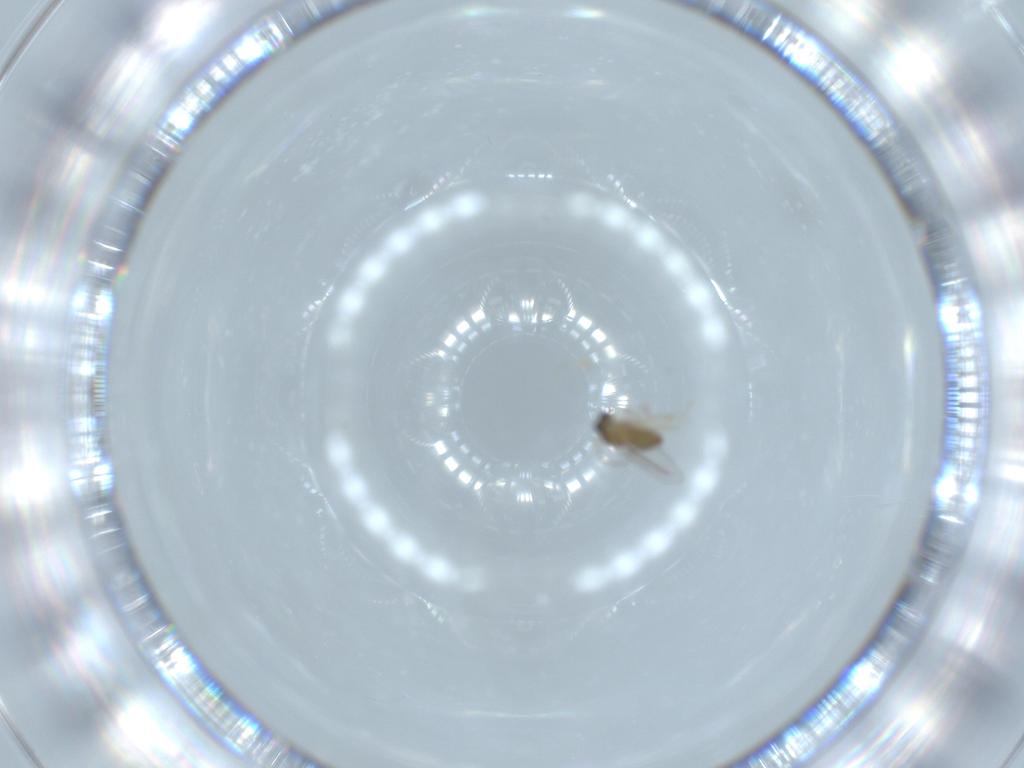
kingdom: Animalia
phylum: Arthropoda
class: Insecta
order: Diptera
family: Cecidomyiidae
